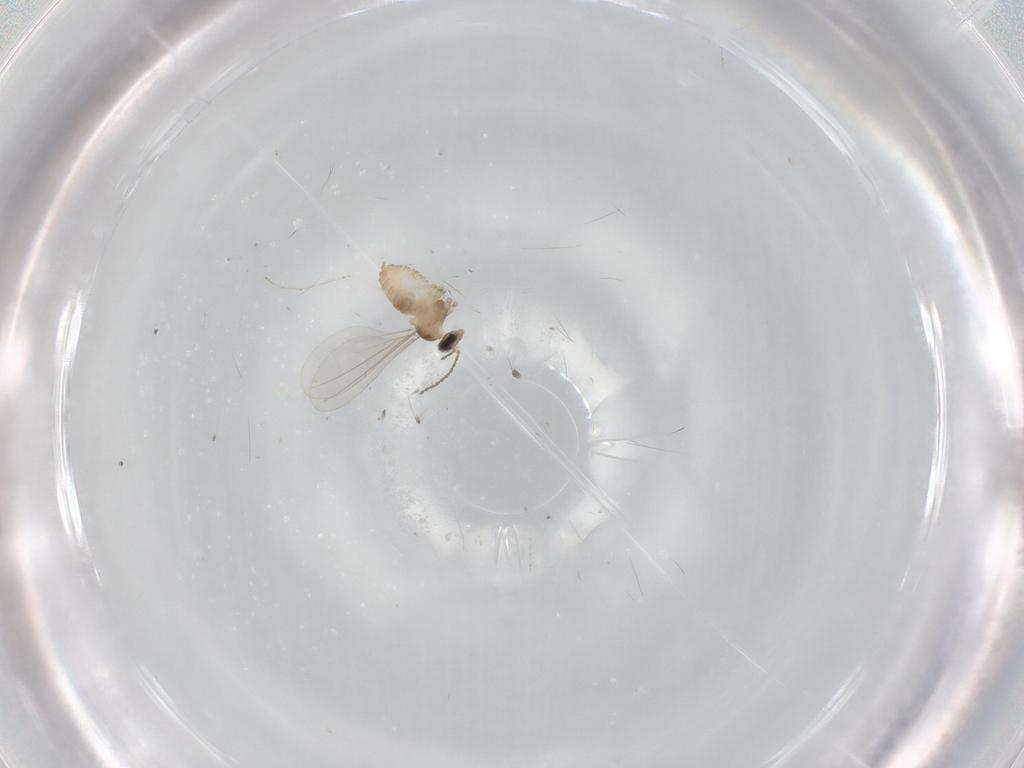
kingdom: Animalia
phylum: Arthropoda
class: Insecta
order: Diptera
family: Cecidomyiidae
